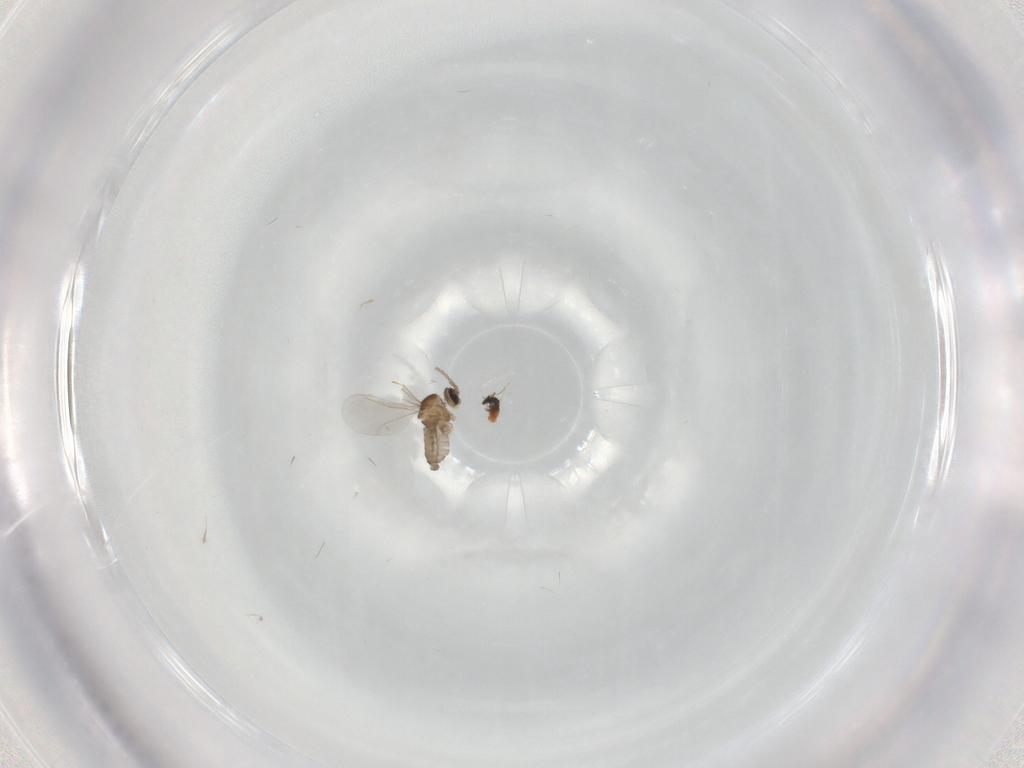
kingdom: Animalia
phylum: Arthropoda
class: Insecta
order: Diptera
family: Cecidomyiidae
